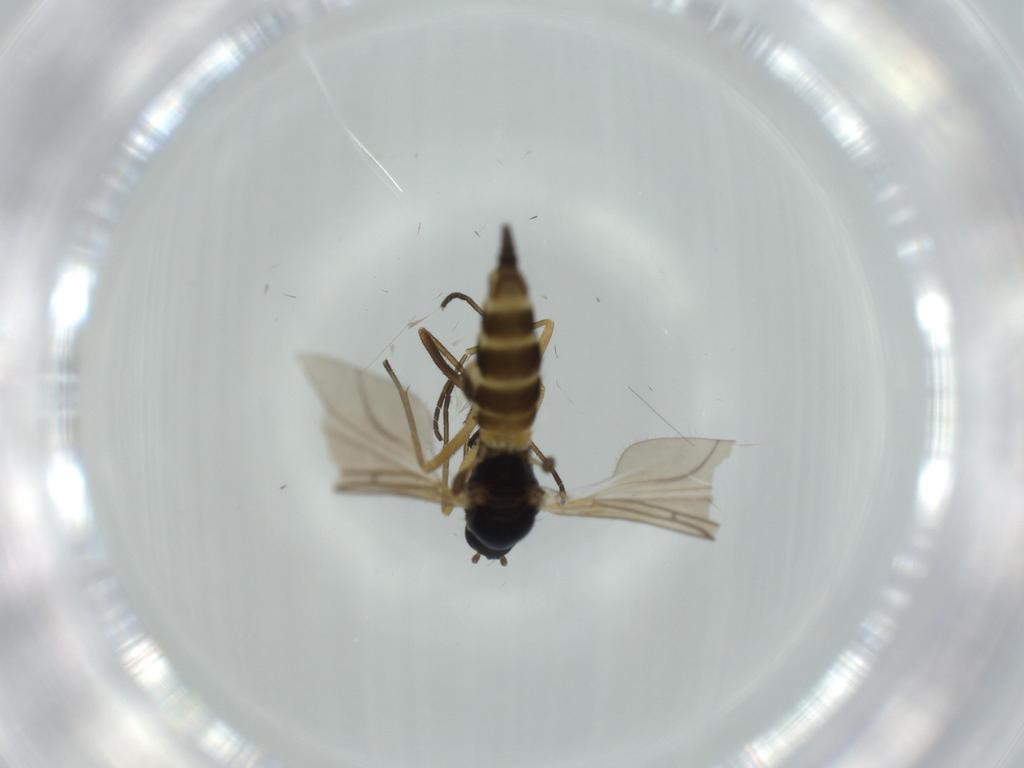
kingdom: Animalia
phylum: Arthropoda
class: Insecta
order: Diptera
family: Sciaridae
